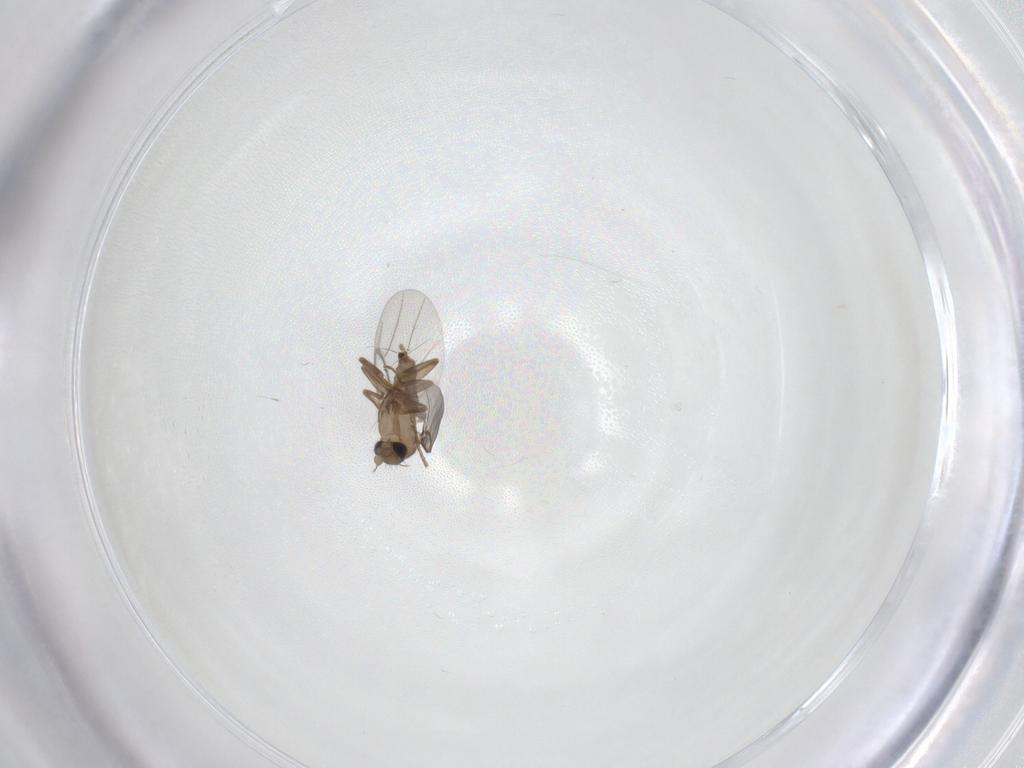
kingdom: Animalia
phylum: Arthropoda
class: Insecta
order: Diptera
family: Psychodidae
